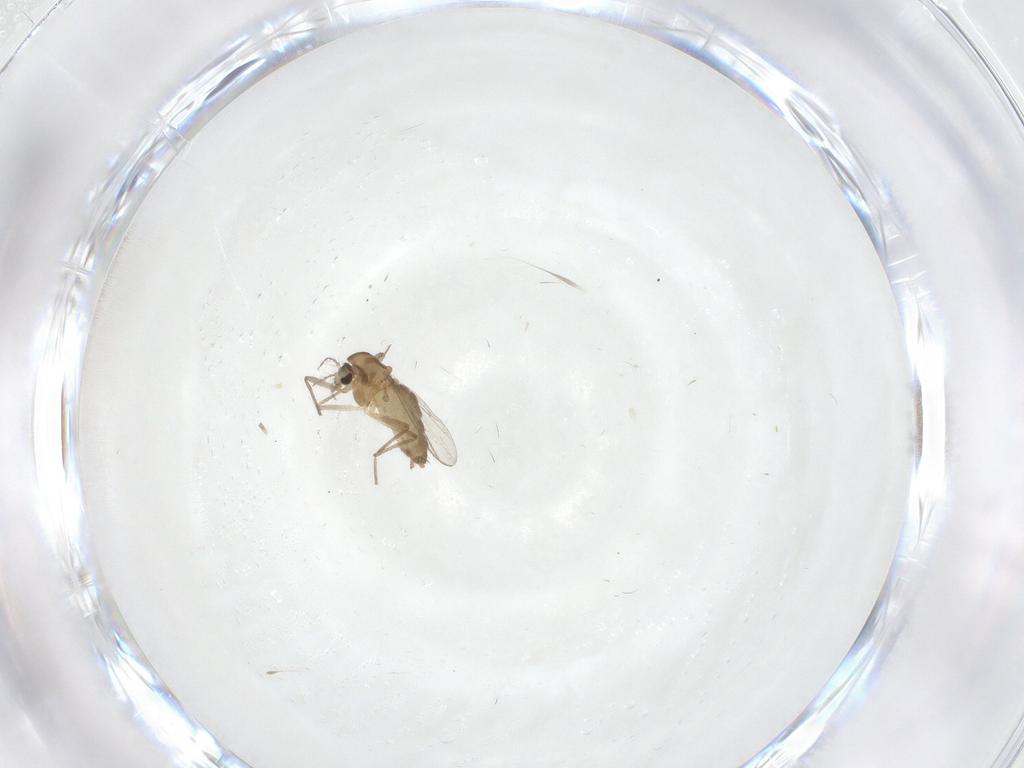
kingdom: Animalia
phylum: Arthropoda
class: Insecta
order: Diptera
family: Chironomidae
